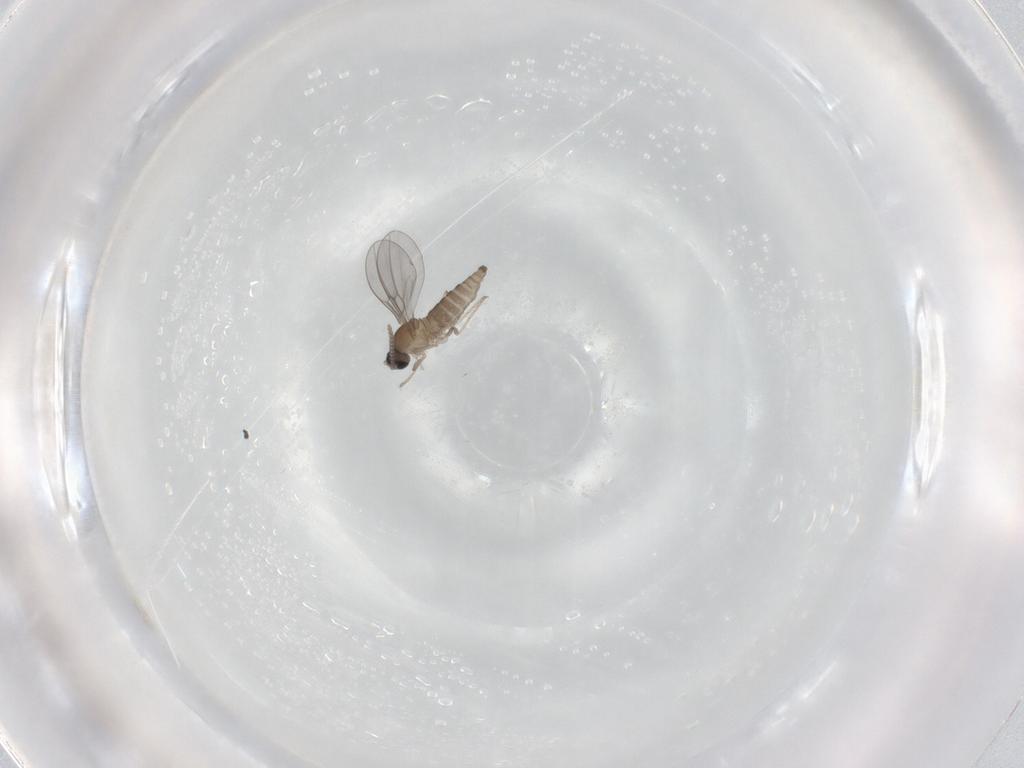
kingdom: Animalia
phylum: Arthropoda
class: Insecta
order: Diptera
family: Cecidomyiidae
